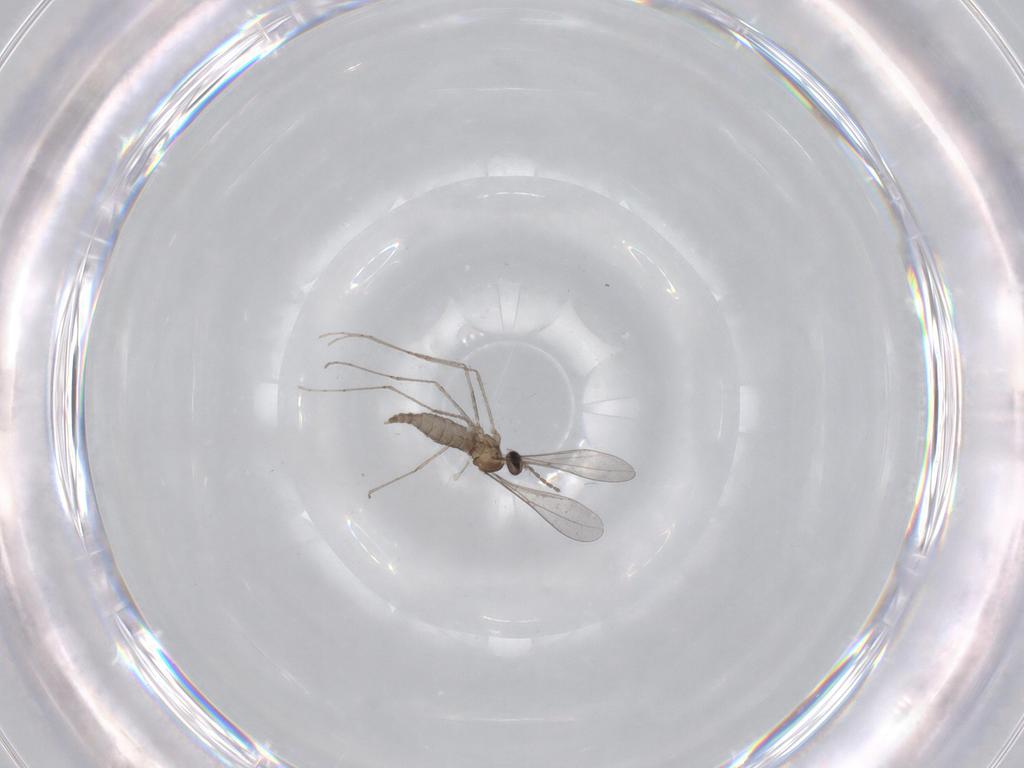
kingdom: Animalia
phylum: Arthropoda
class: Insecta
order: Diptera
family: Cecidomyiidae
